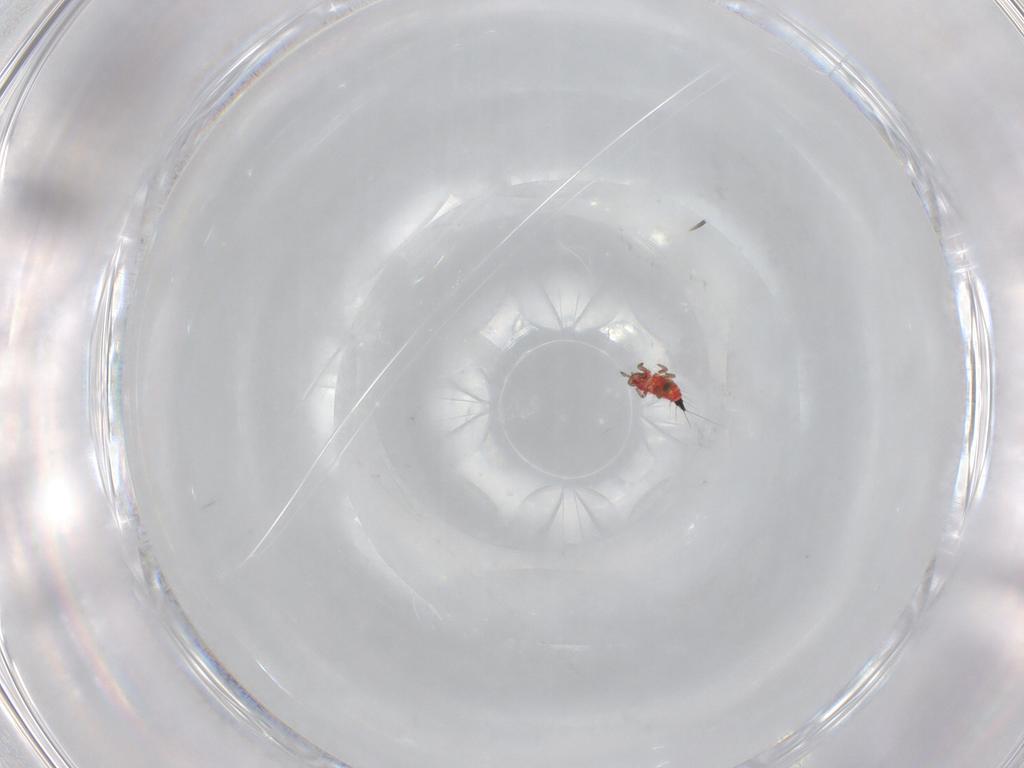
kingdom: Animalia
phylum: Arthropoda
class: Insecta
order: Thysanoptera
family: Phlaeothripidae
